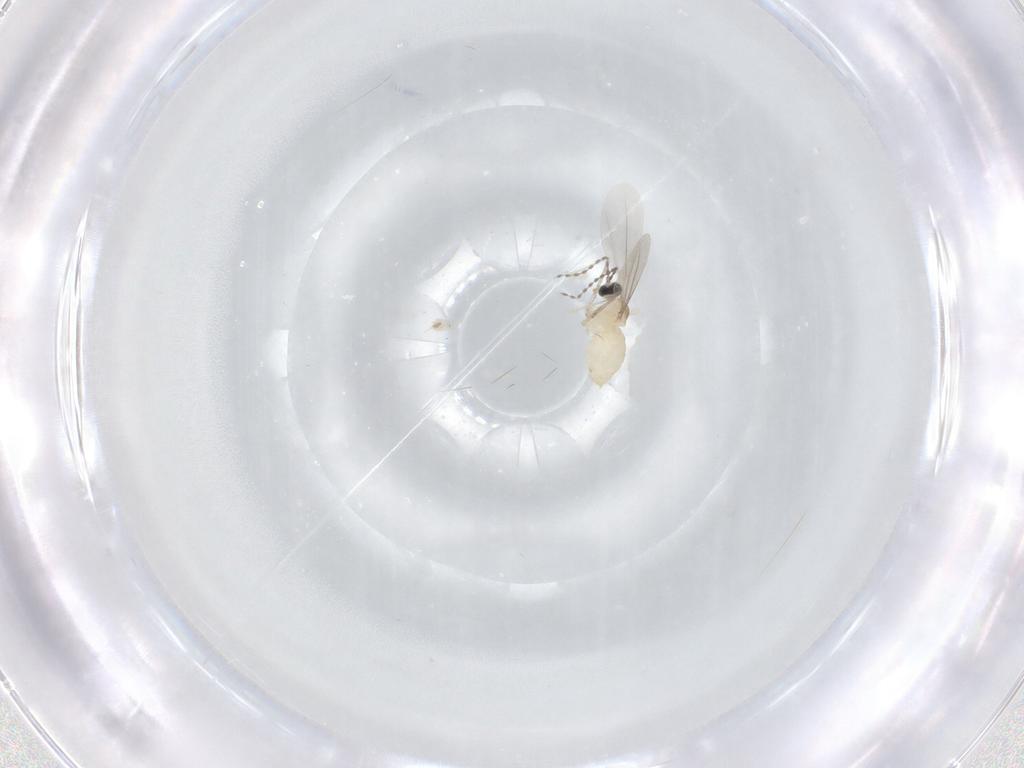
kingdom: Animalia
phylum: Arthropoda
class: Insecta
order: Diptera
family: Cecidomyiidae
